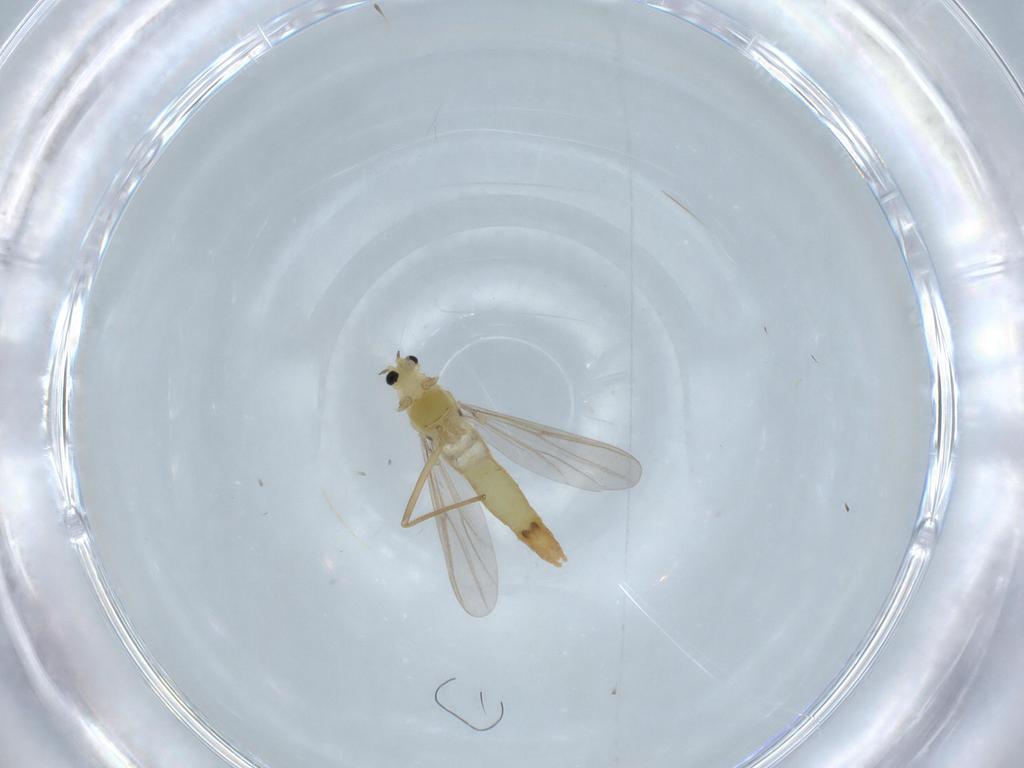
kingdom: Animalia
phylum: Arthropoda
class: Insecta
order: Diptera
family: Chironomidae
